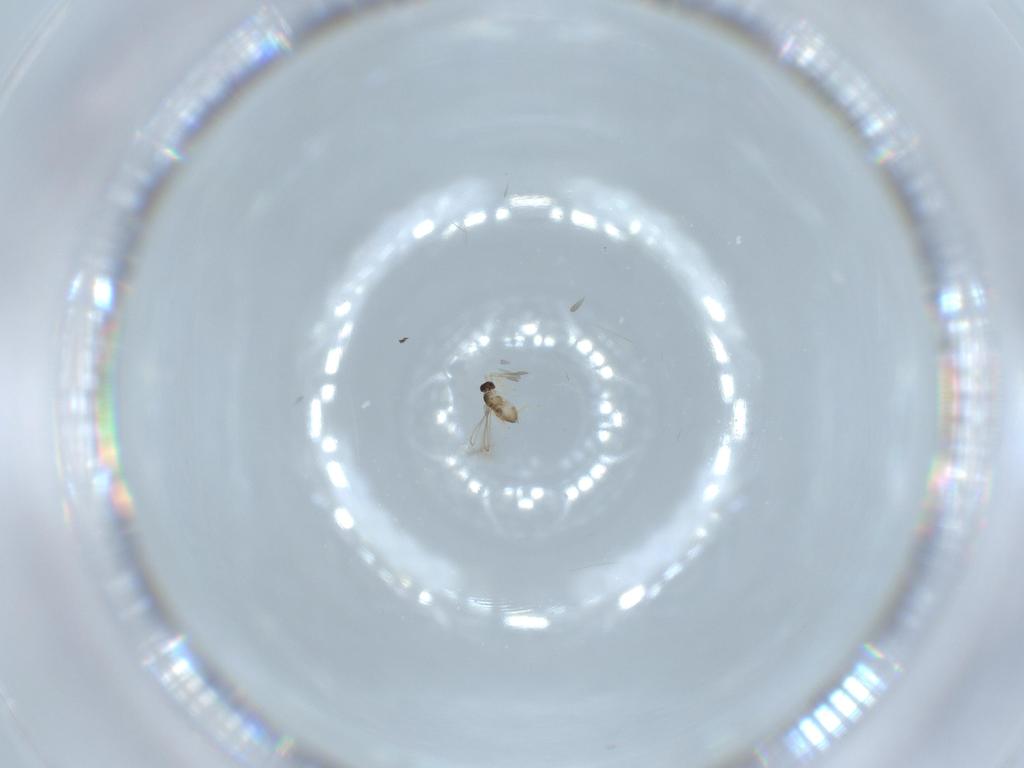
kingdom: Animalia
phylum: Arthropoda
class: Insecta
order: Hymenoptera
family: Mymaridae
